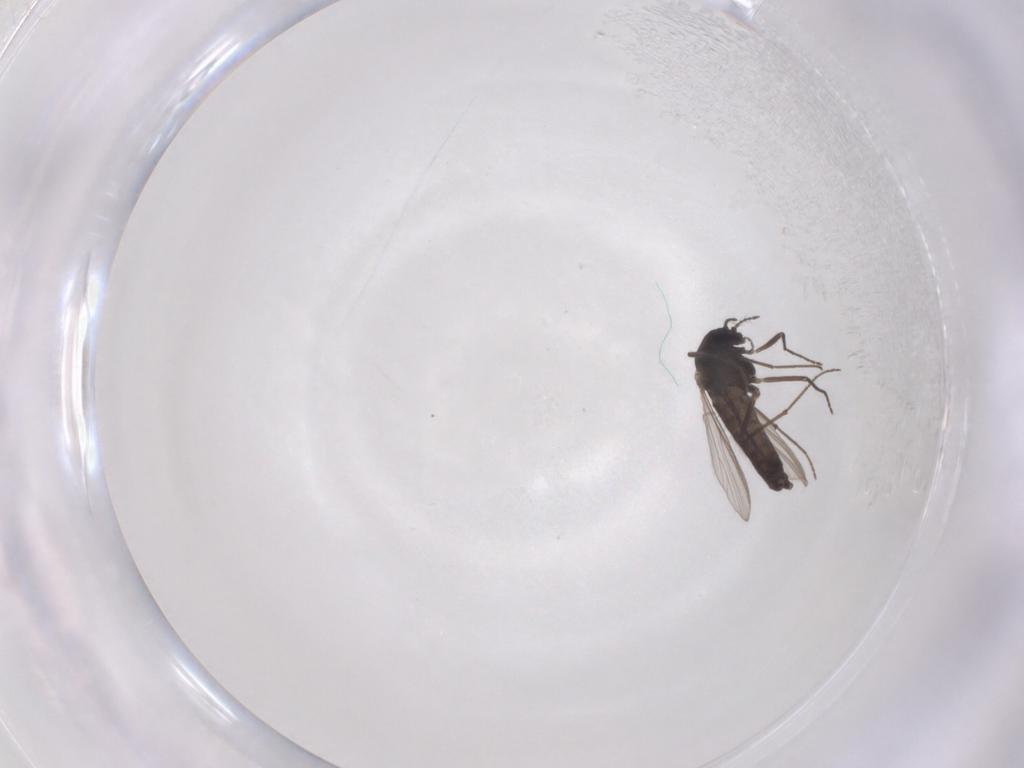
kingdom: Animalia
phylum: Arthropoda
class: Insecta
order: Diptera
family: Chironomidae
